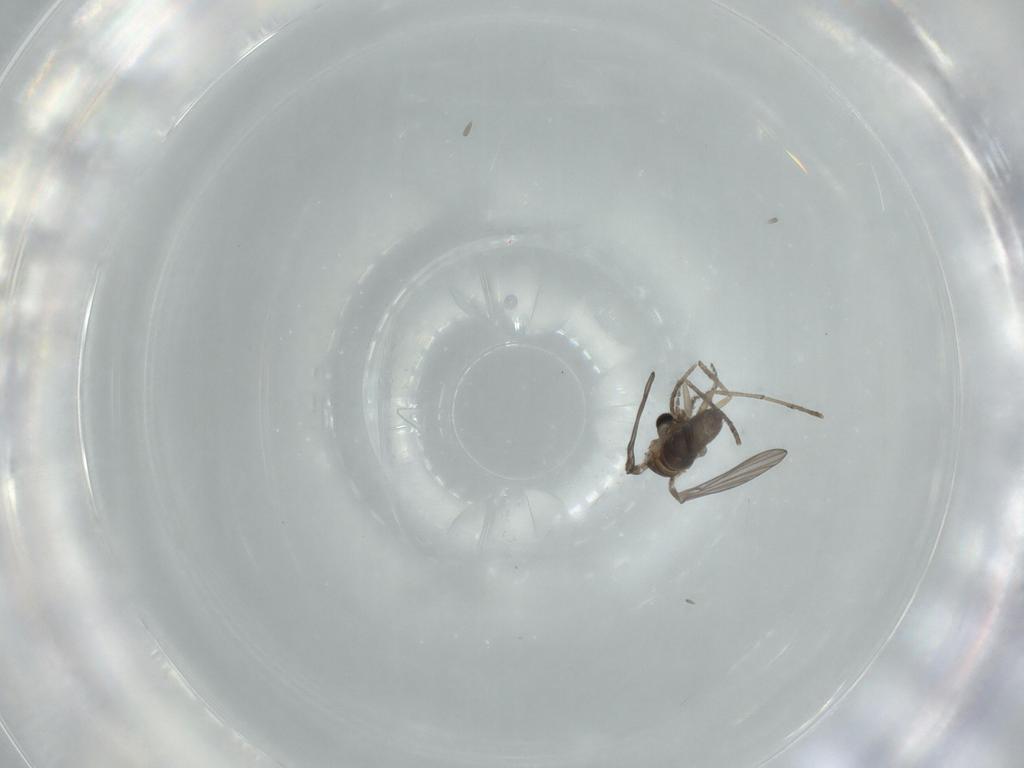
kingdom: Animalia
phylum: Arthropoda
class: Insecta
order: Diptera
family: Psychodidae
